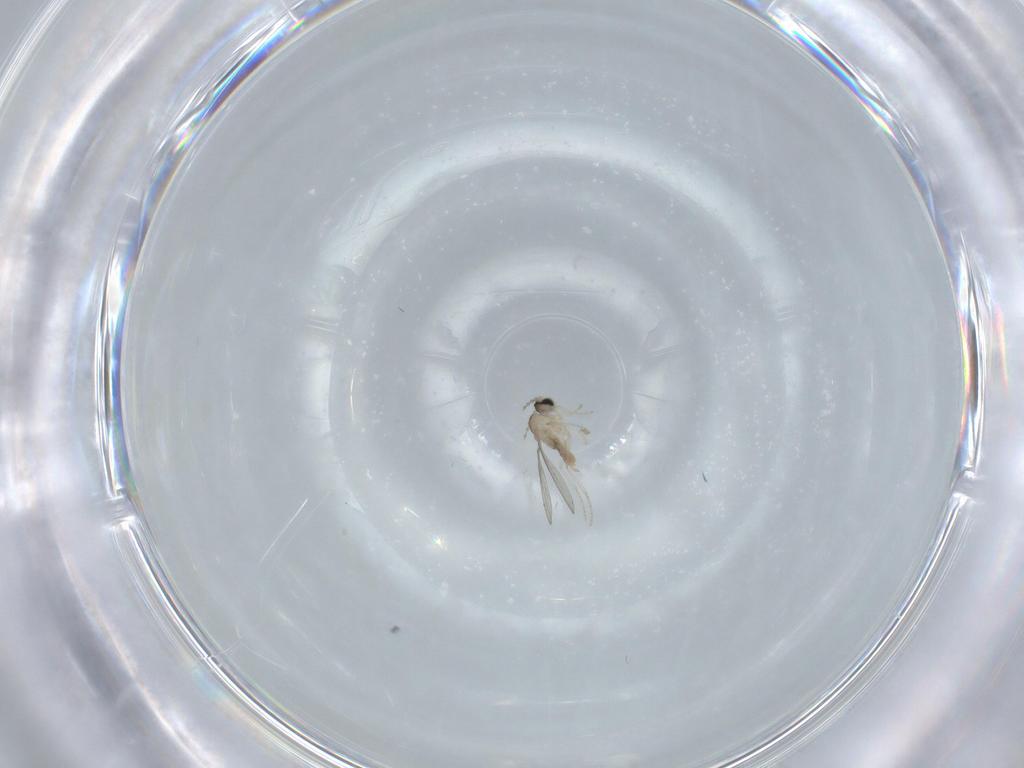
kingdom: Animalia
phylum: Arthropoda
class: Insecta
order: Diptera
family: Cecidomyiidae
